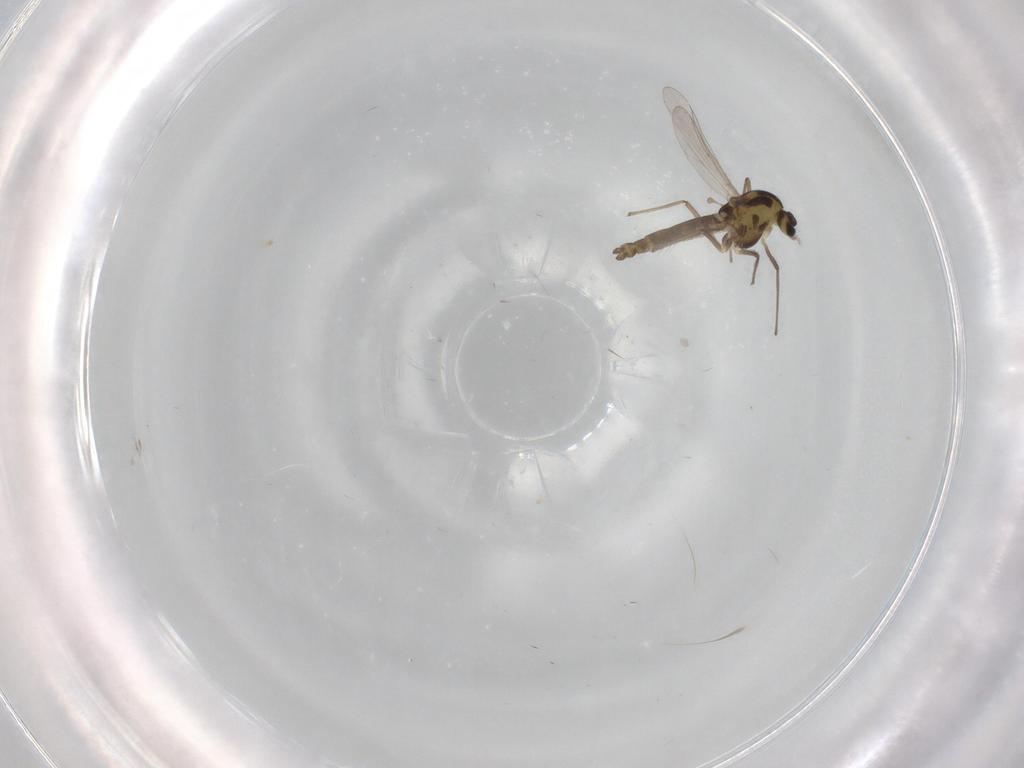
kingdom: Animalia
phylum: Arthropoda
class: Insecta
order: Diptera
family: Chironomidae
